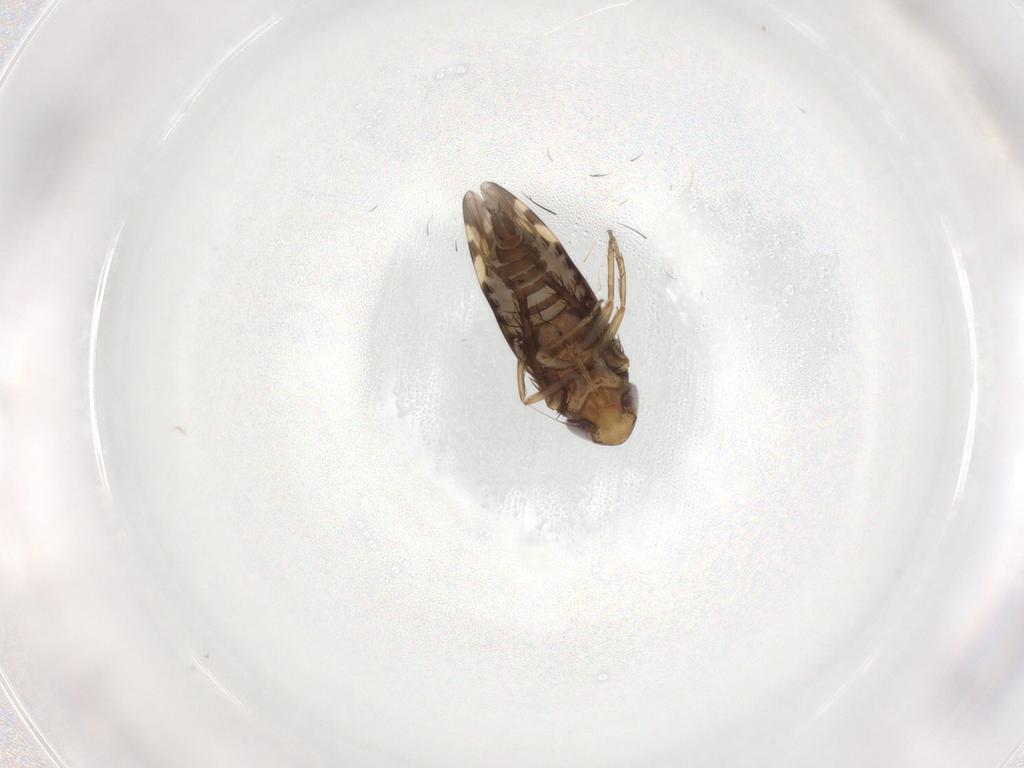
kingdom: Animalia
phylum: Arthropoda
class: Insecta
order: Hemiptera
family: Cicadellidae
